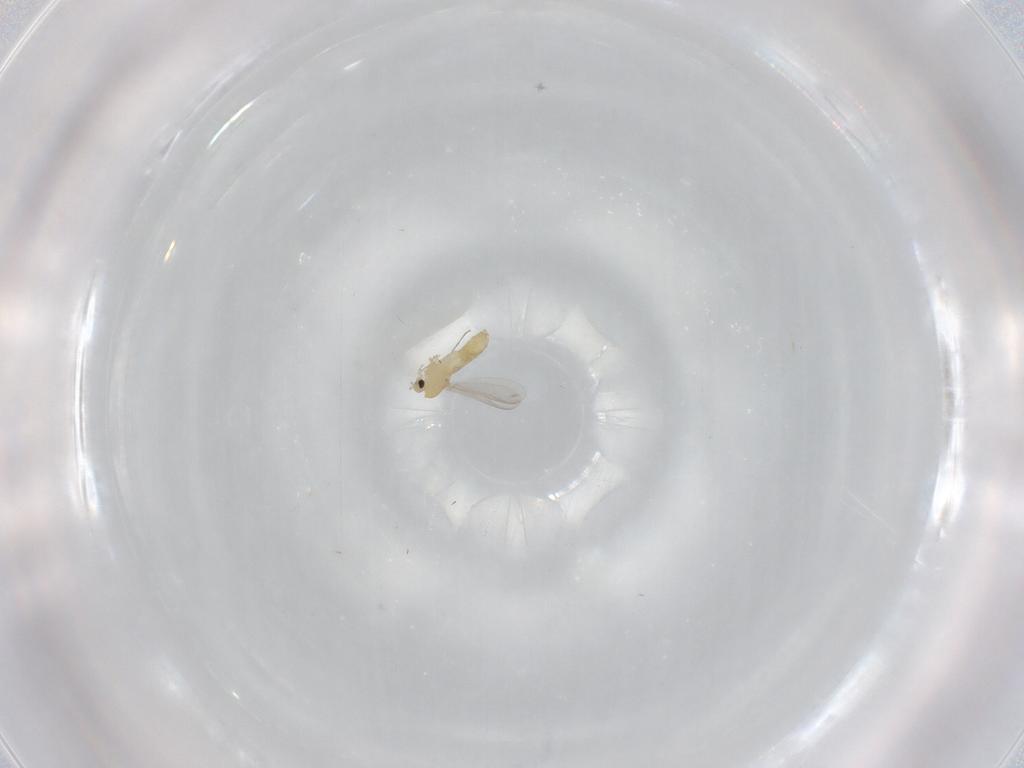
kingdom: Animalia
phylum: Arthropoda
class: Insecta
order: Diptera
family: Chironomidae
